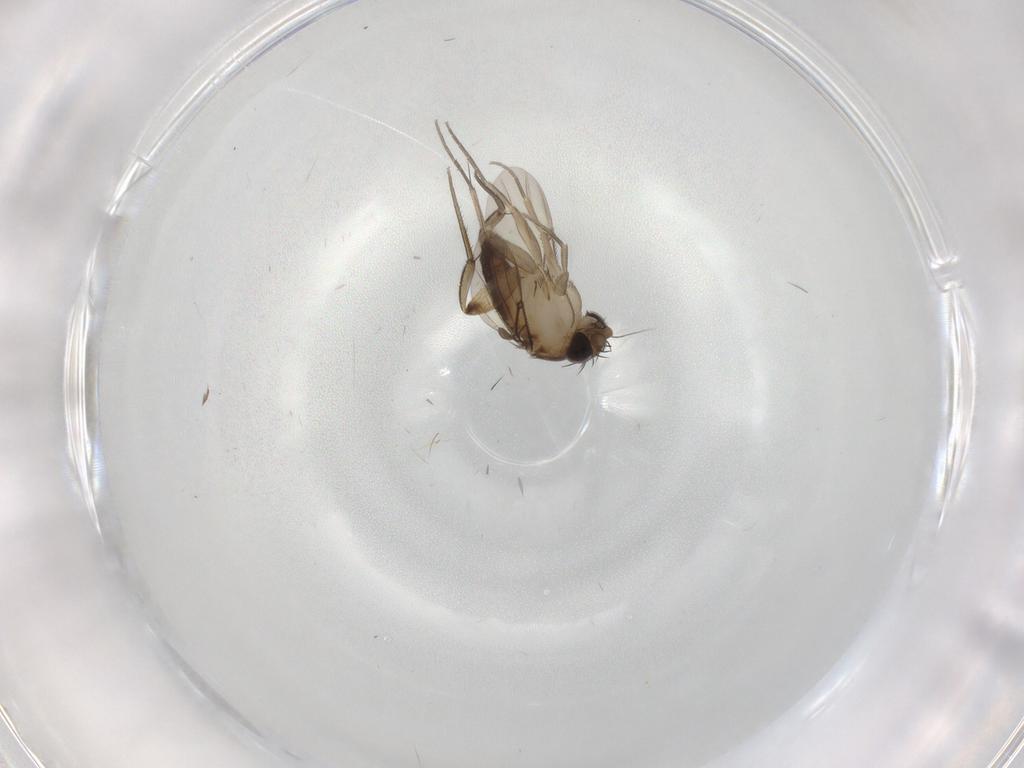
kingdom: Animalia
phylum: Arthropoda
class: Insecta
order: Diptera
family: Phoridae
